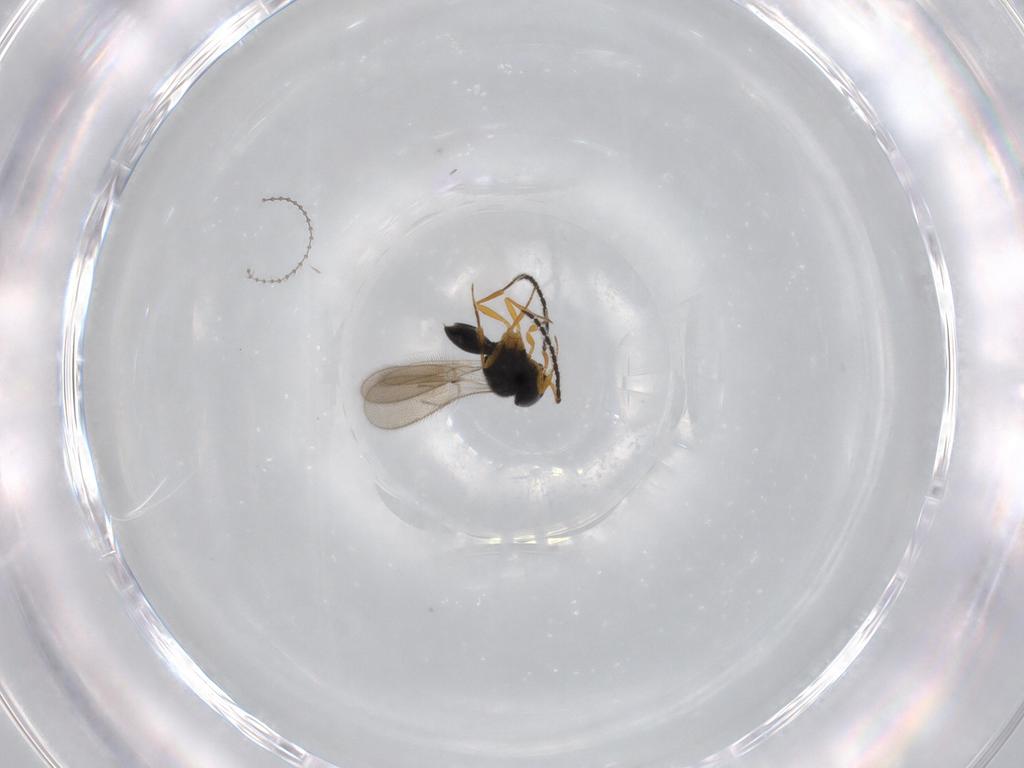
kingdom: Animalia
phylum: Arthropoda
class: Insecta
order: Hymenoptera
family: Scelionidae
